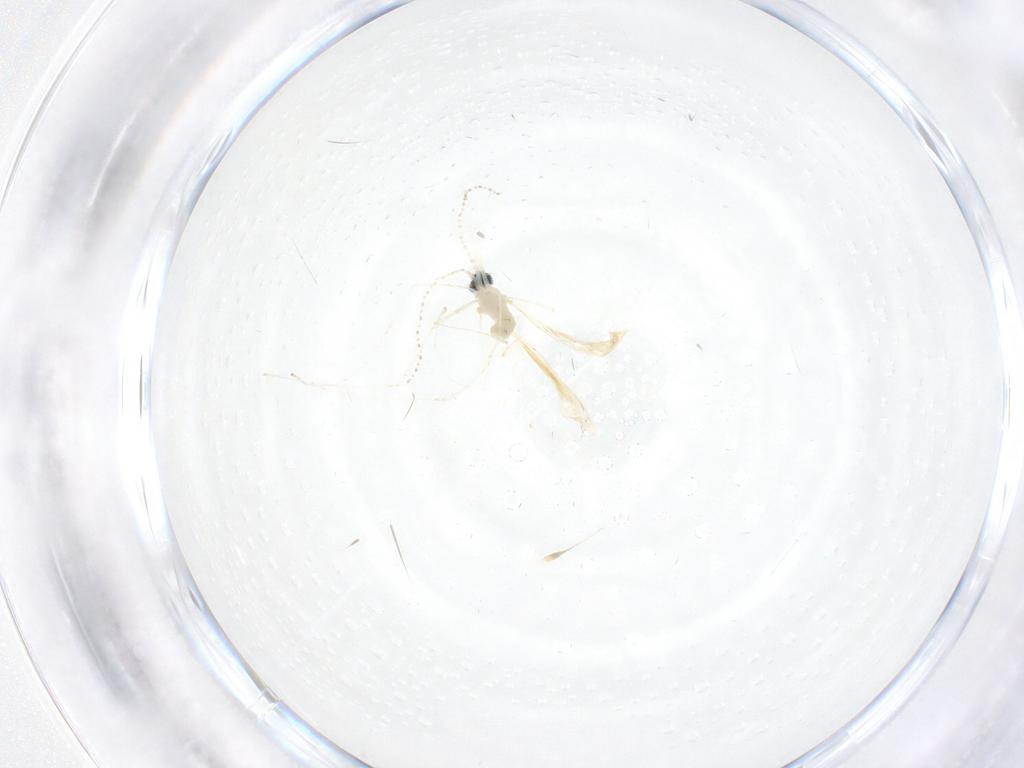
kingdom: Animalia
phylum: Arthropoda
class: Insecta
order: Diptera
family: Cecidomyiidae
